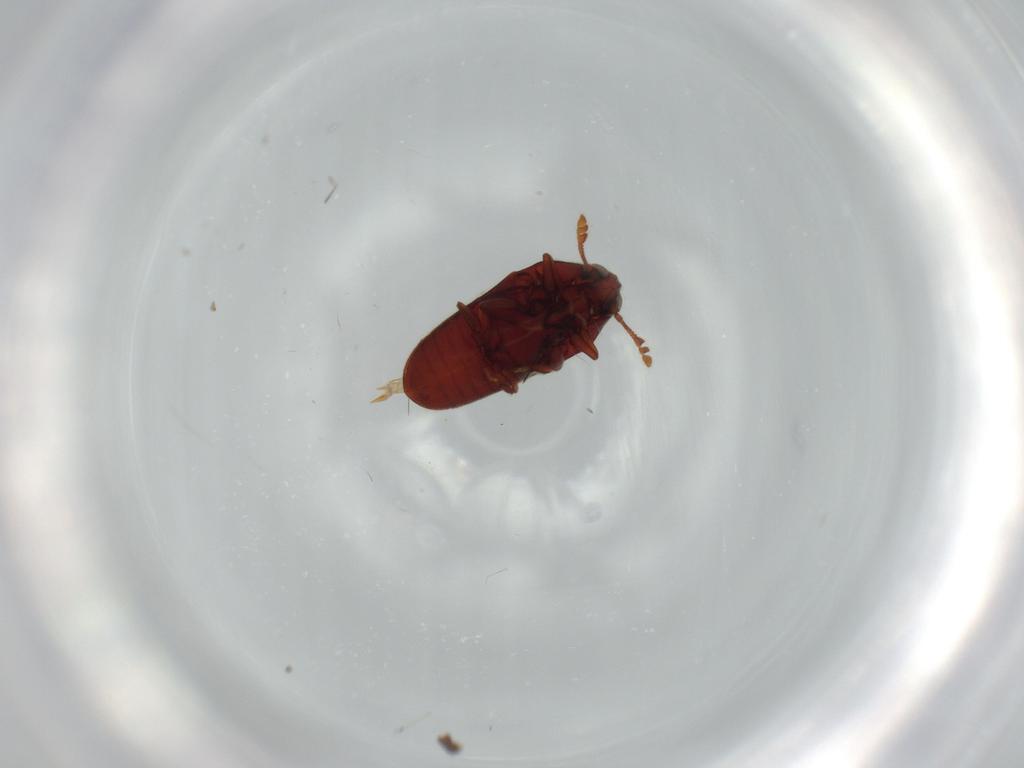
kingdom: Animalia
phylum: Arthropoda
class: Insecta
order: Coleoptera
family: Throscidae
